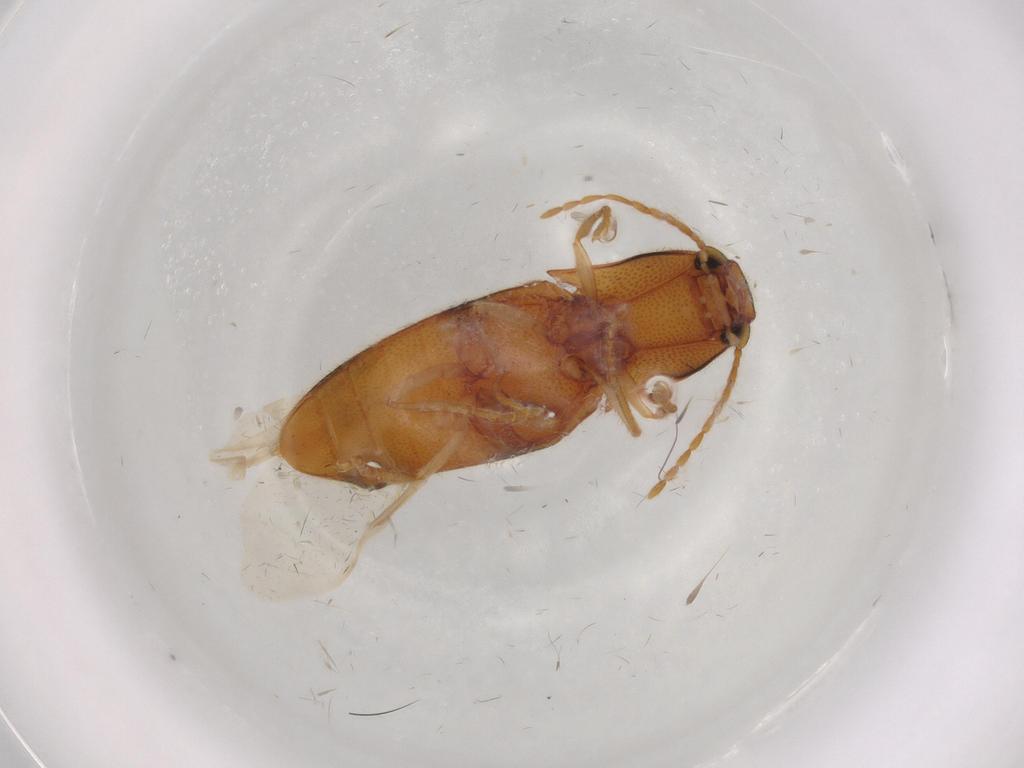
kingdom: Animalia
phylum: Arthropoda
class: Insecta
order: Coleoptera
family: Elateridae
